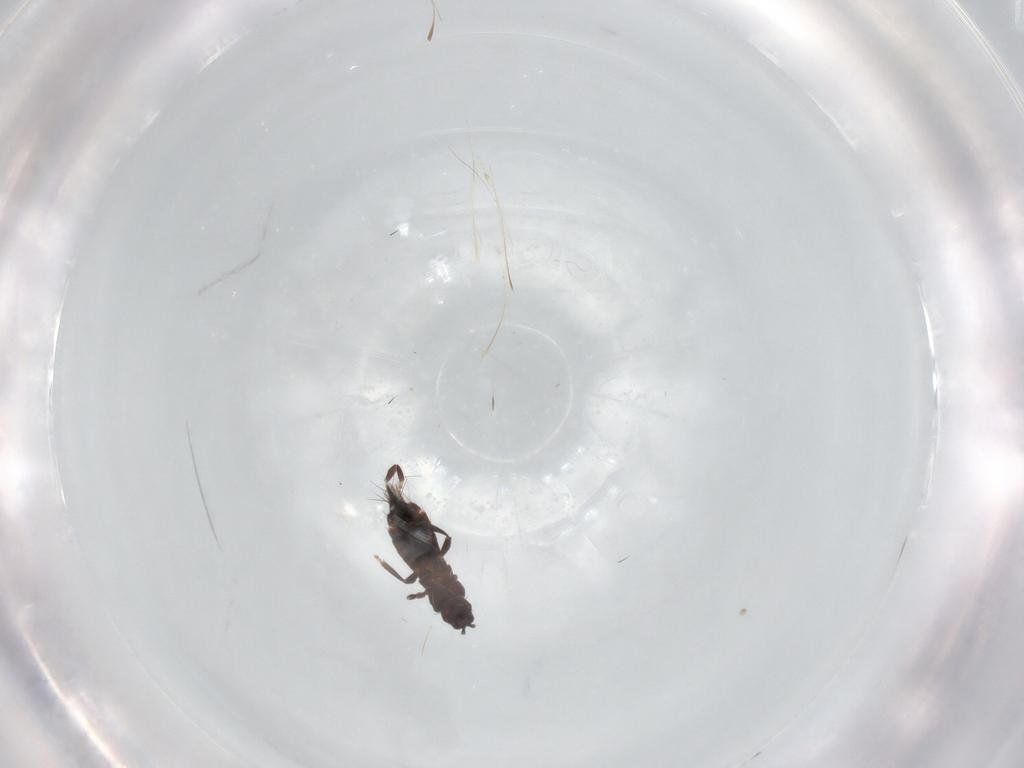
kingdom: Animalia
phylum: Arthropoda
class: Insecta
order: Thysanoptera
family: Thripidae
